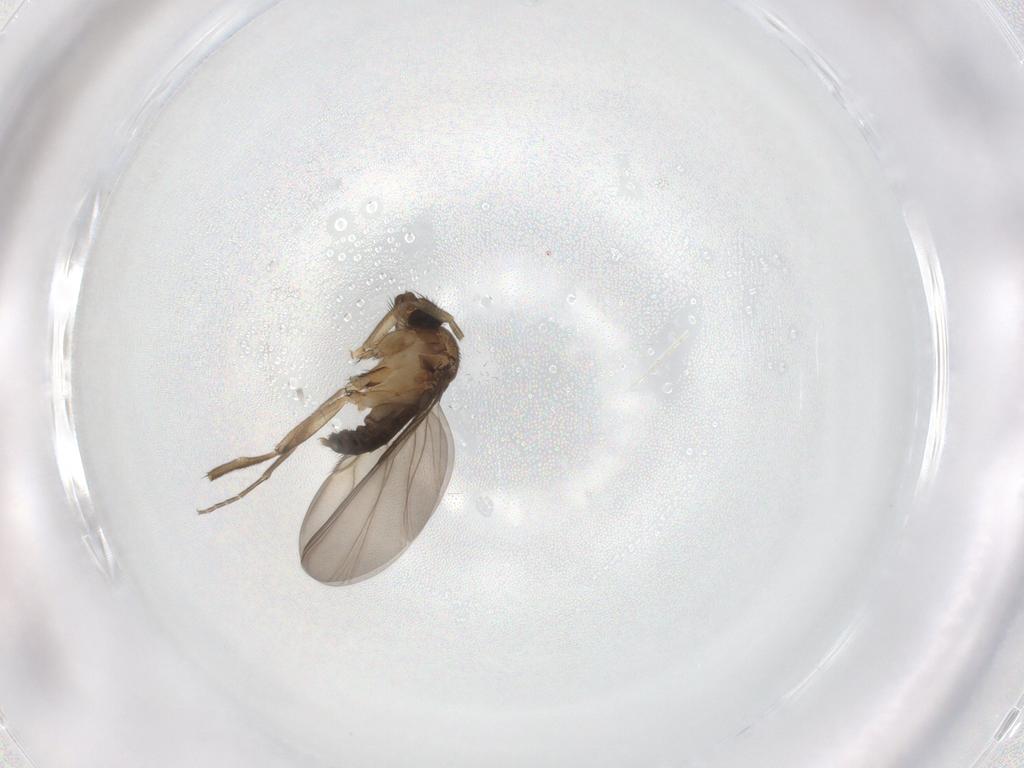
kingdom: Animalia
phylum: Arthropoda
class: Insecta
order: Diptera
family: Phoridae
